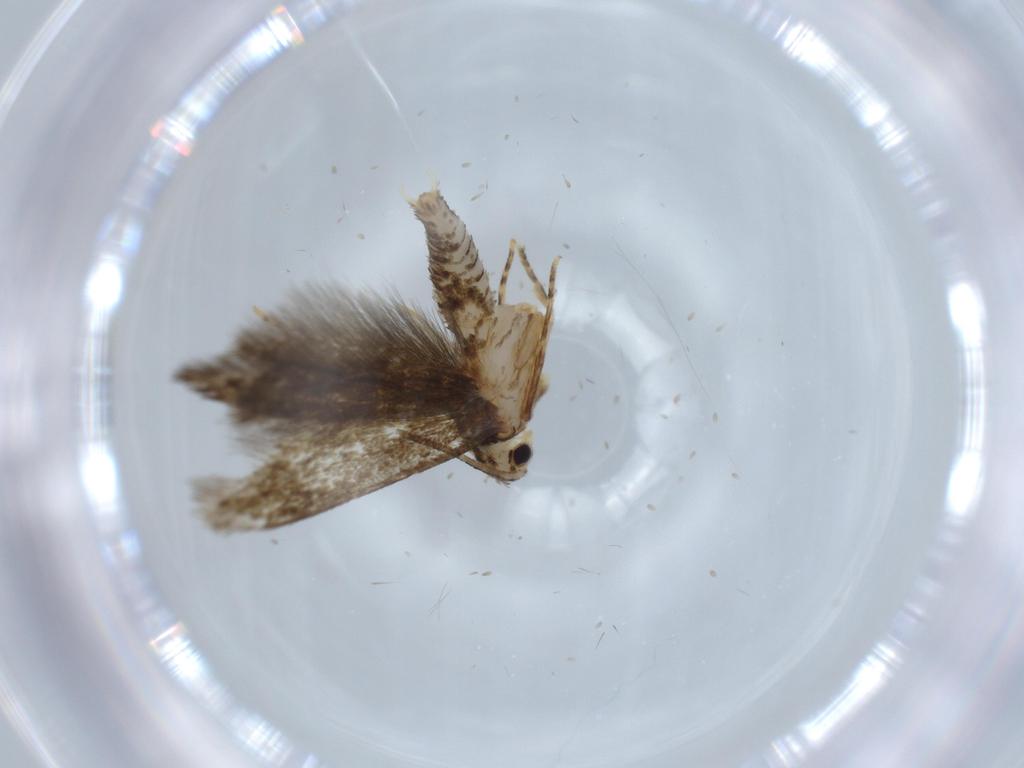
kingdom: Animalia
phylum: Arthropoda
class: Insecta
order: Lepidoptera
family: Tineidae
